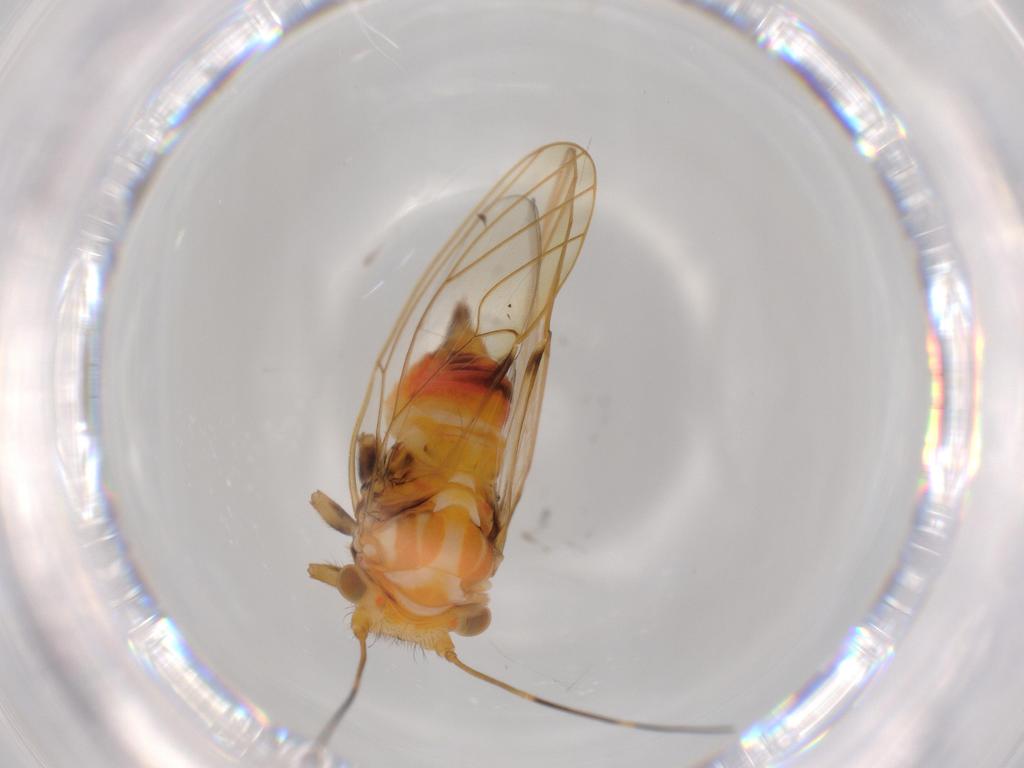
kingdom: Animalia
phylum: Arthropoda
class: Insecta
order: Hemiptera
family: Psyllidae
